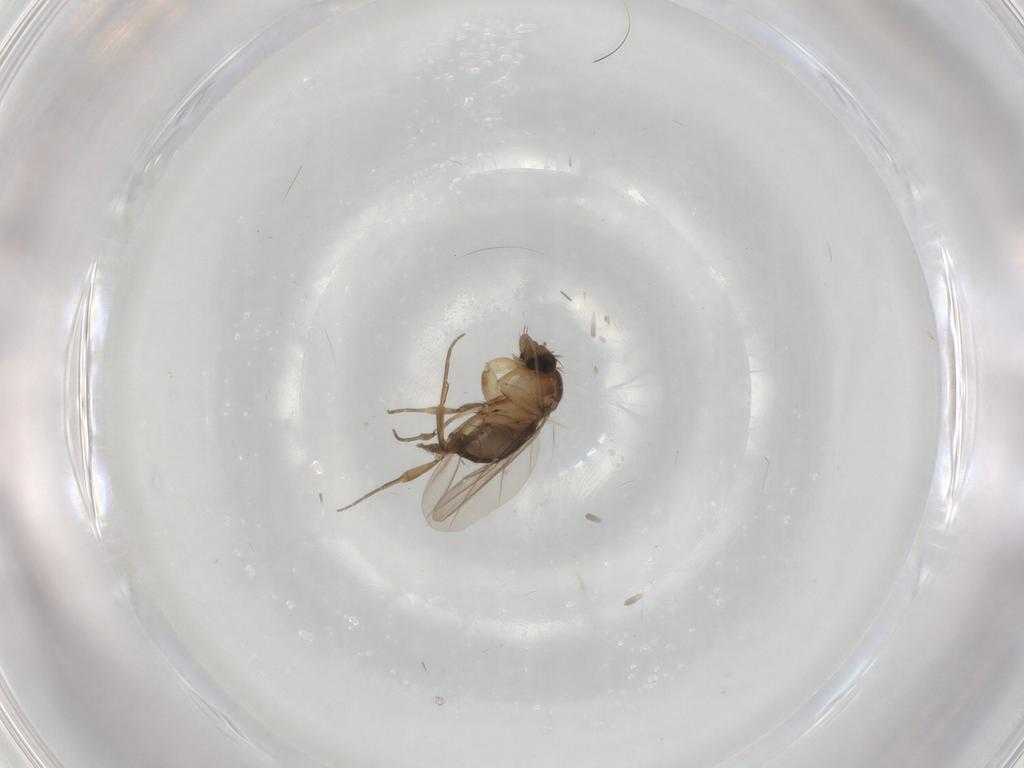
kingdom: Animalia
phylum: Arthropoda
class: Insecta
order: Diptera
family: Phoridae
